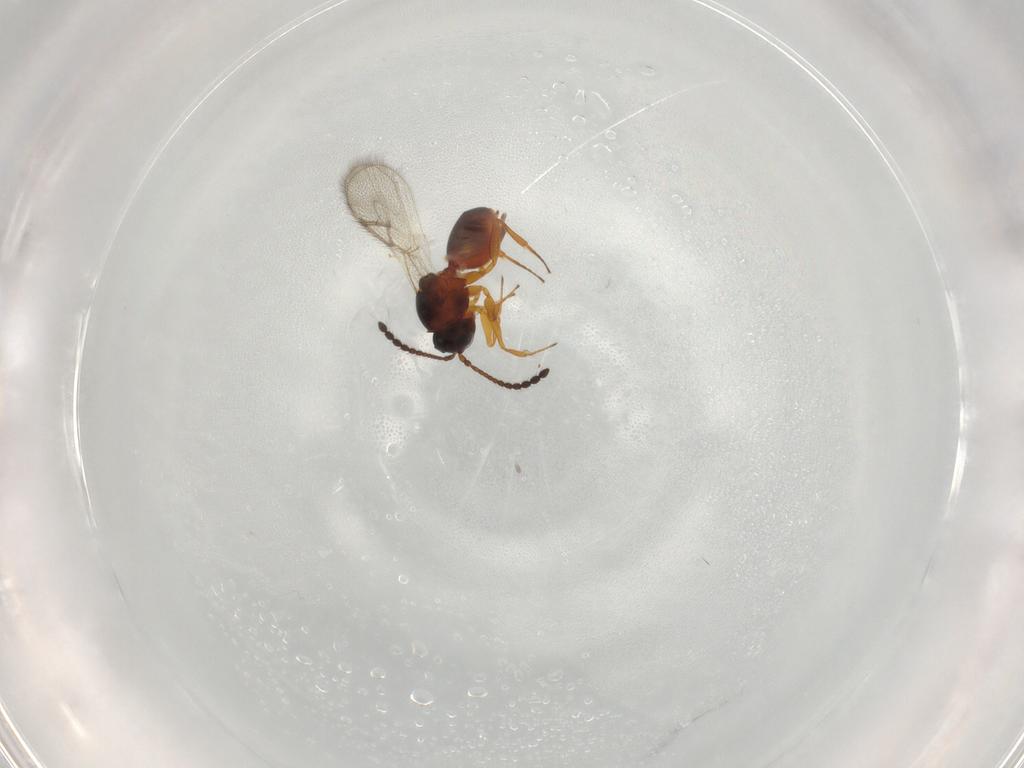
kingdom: Animalia
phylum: Arthropoda
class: Insecta
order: Hymenoptera
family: Figitidae
